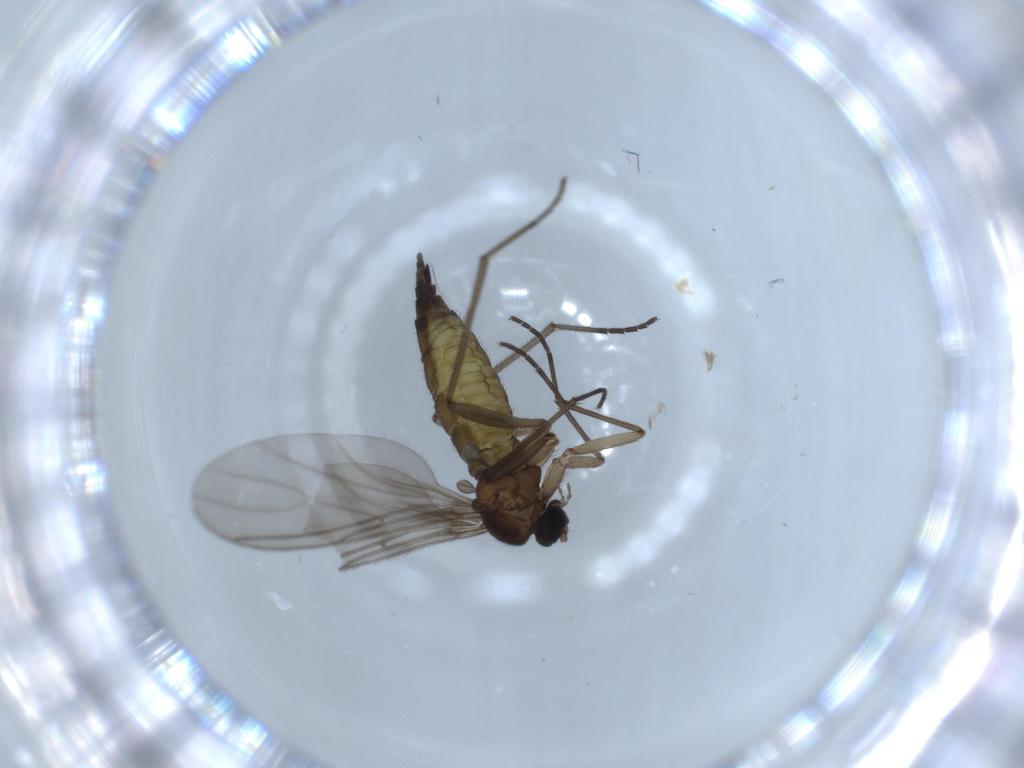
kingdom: Animalia
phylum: Arthropoda
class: Insecta
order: Diptera
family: Sciaridae
